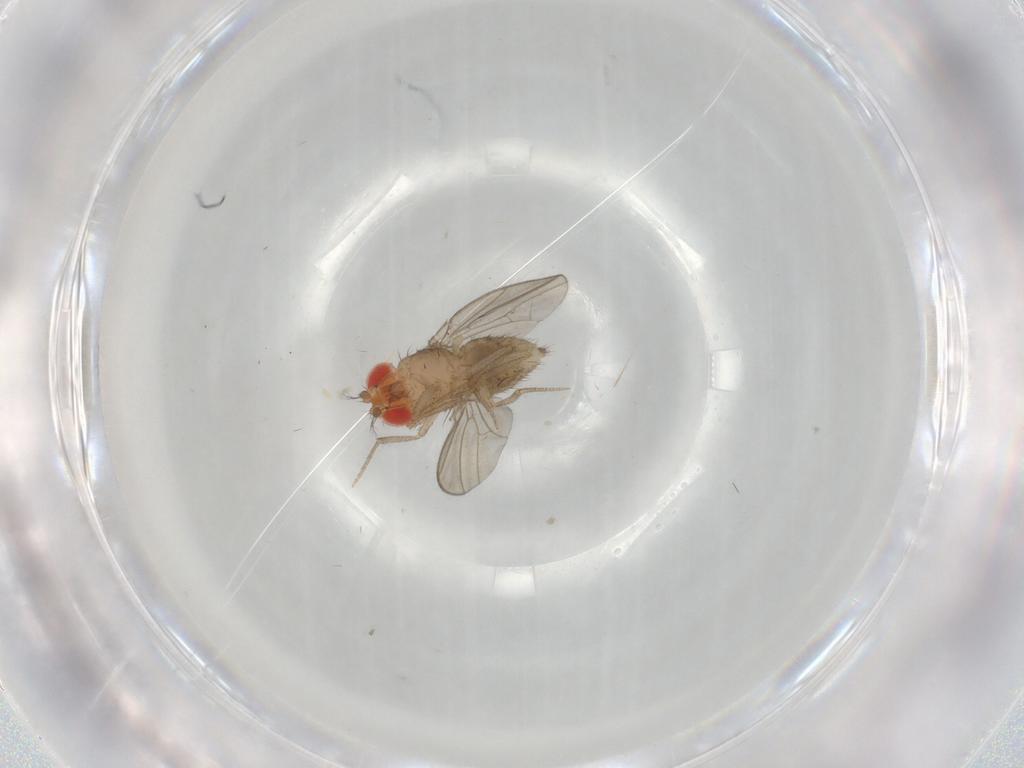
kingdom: Animalia
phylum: Arthropoda
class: Insecta
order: Diptera
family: Drosophilidae
